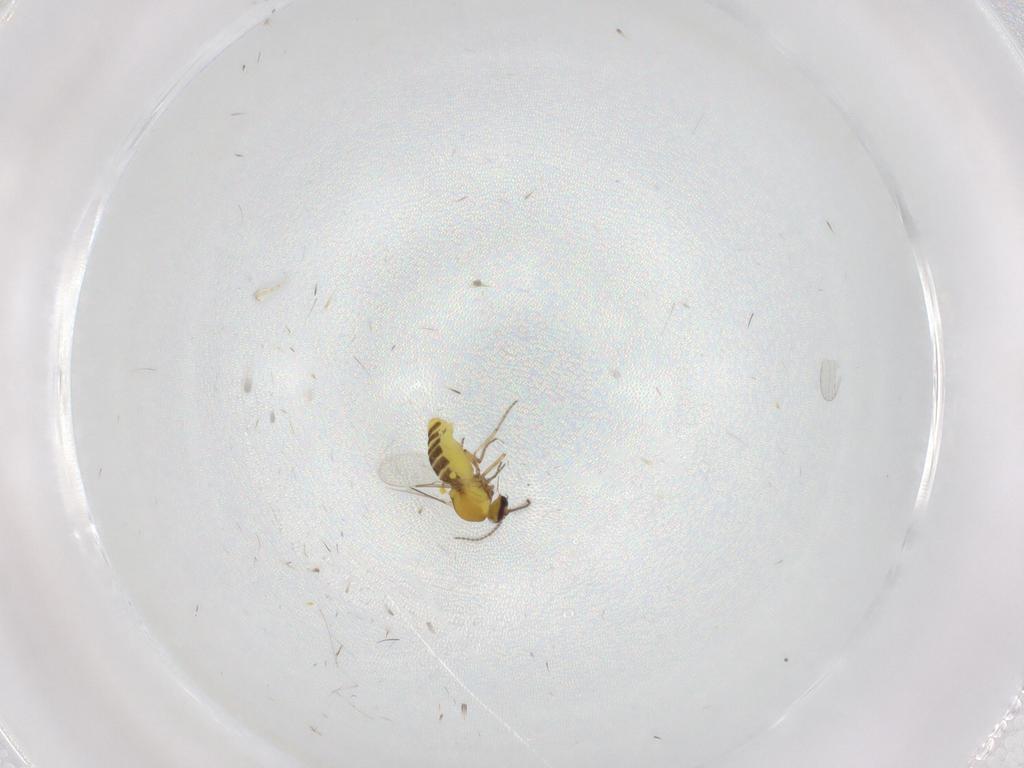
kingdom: Animalia
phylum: Arthropoda
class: Insecta
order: Diptera
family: Ceratopogonidae
